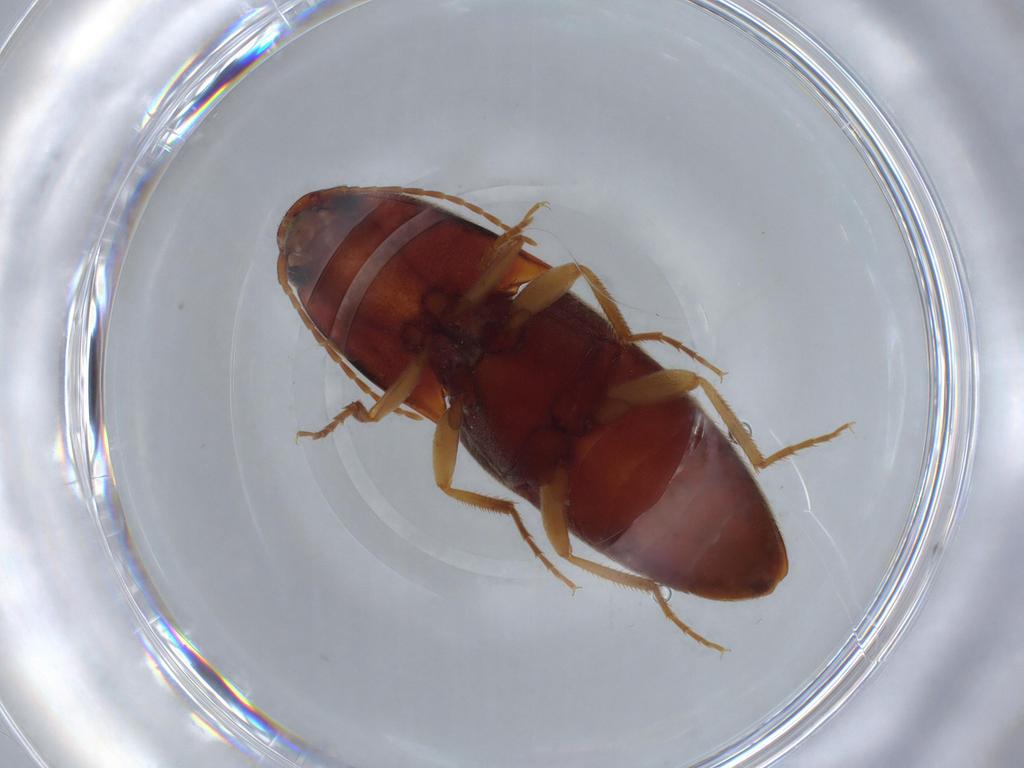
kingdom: Animalia
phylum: Arthropoda
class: Insecta
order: Coleoptera
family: Elateridae
